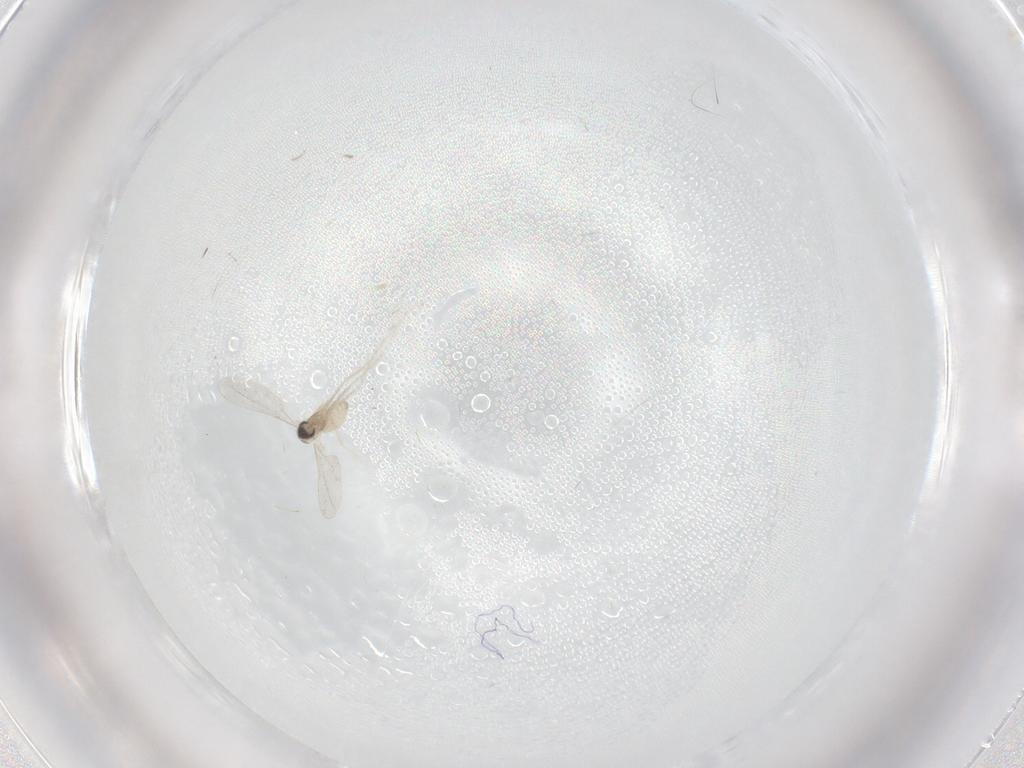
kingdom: Animalia
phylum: Arthropoda
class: Insecta
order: Diptera
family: Cecidomyiidae
